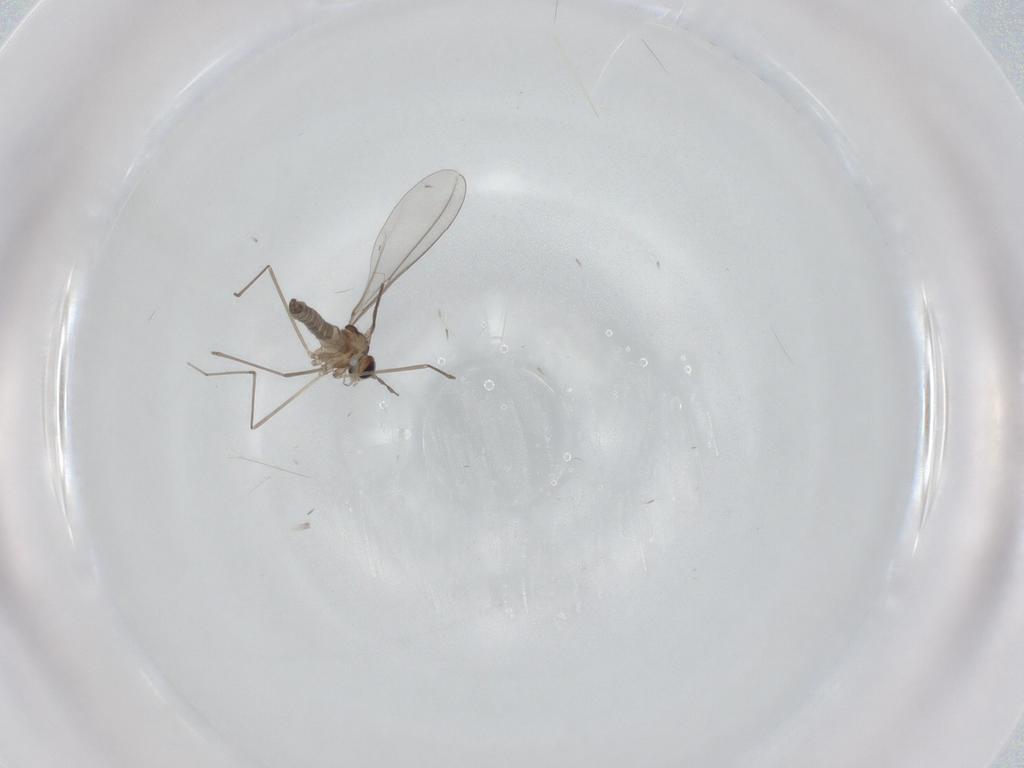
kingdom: Animalia
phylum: Arthropoda
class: Insecta
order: Diptera
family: Cecidomyiidae
